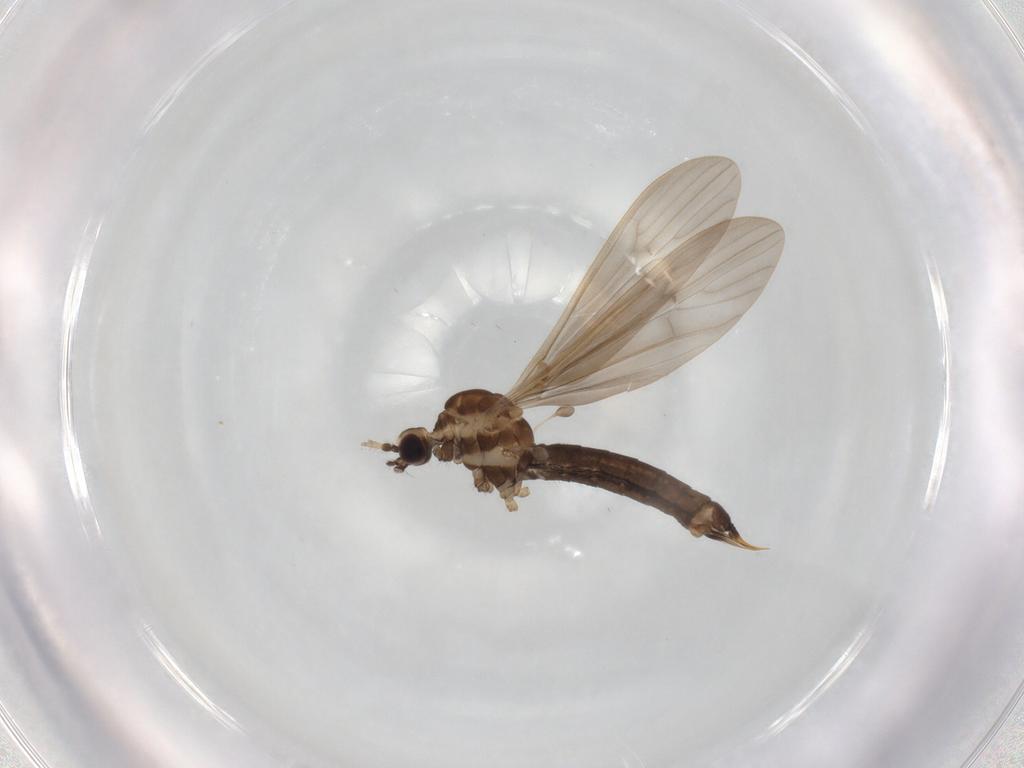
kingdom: Animalia
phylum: Arthropoda
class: Insecta
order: Diptera
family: Limoniidae
